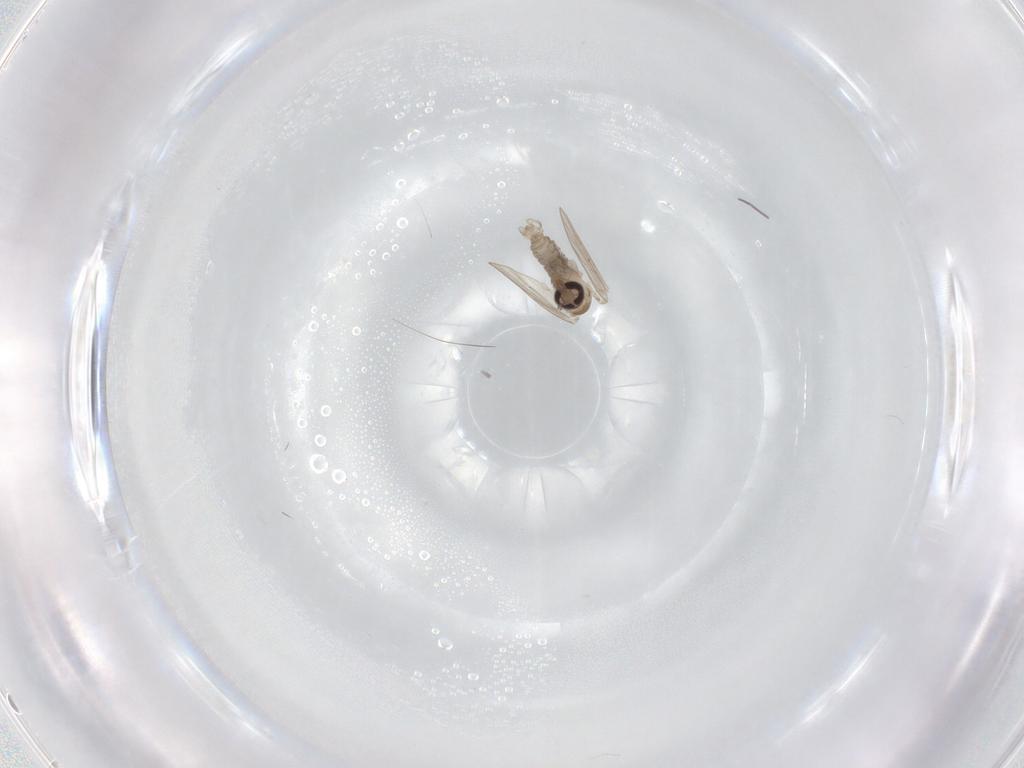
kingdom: Animalia
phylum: Arthropoda
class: Insecta
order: Diptera
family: Psychodidae
